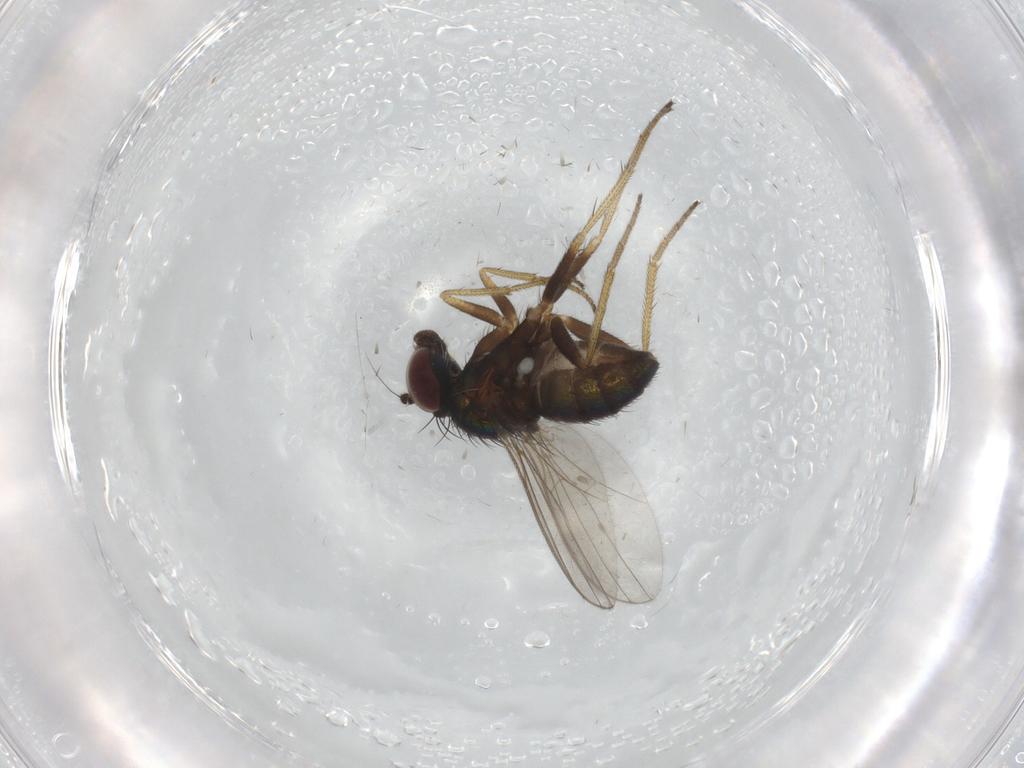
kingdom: Animalia
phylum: Arthropoda
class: Insecta
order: Diptera
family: Dolichopodidae
